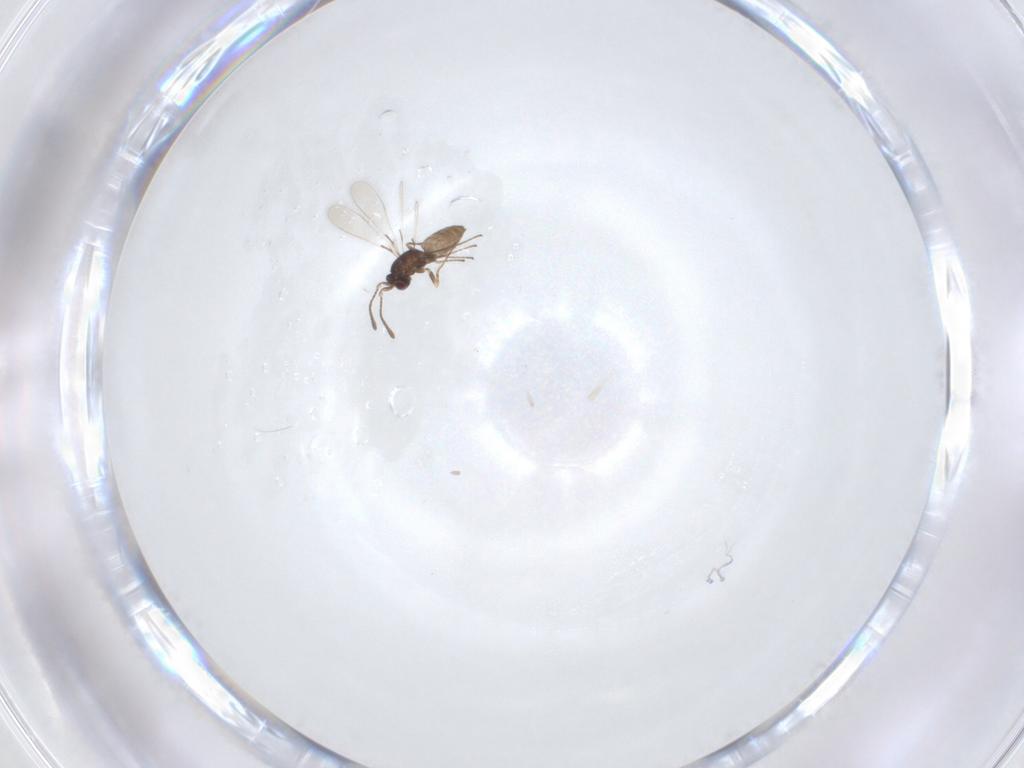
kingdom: Animalia
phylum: Arthropoda
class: Insecta
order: Hymenoptera
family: Mymaridae
